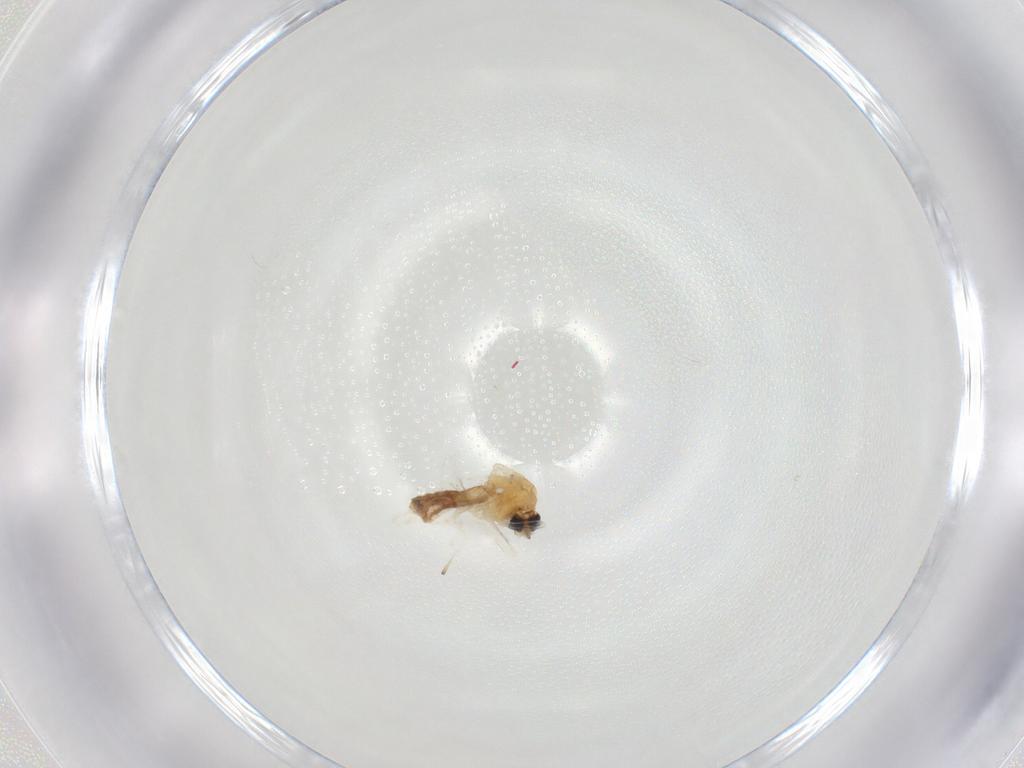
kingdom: Animalia
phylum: Arthropoda
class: Insecta
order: Diptera
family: Ceratopogonidae
